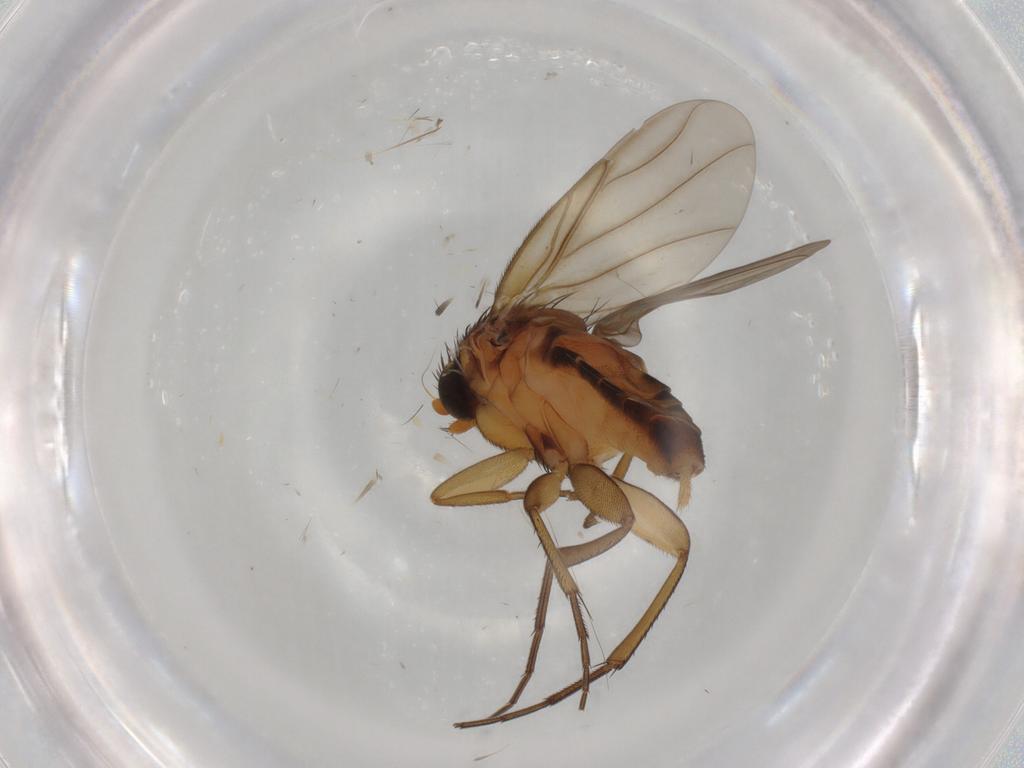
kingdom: Animalia
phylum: Arthropoda
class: Insecta
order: Diptera
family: Phoridae
